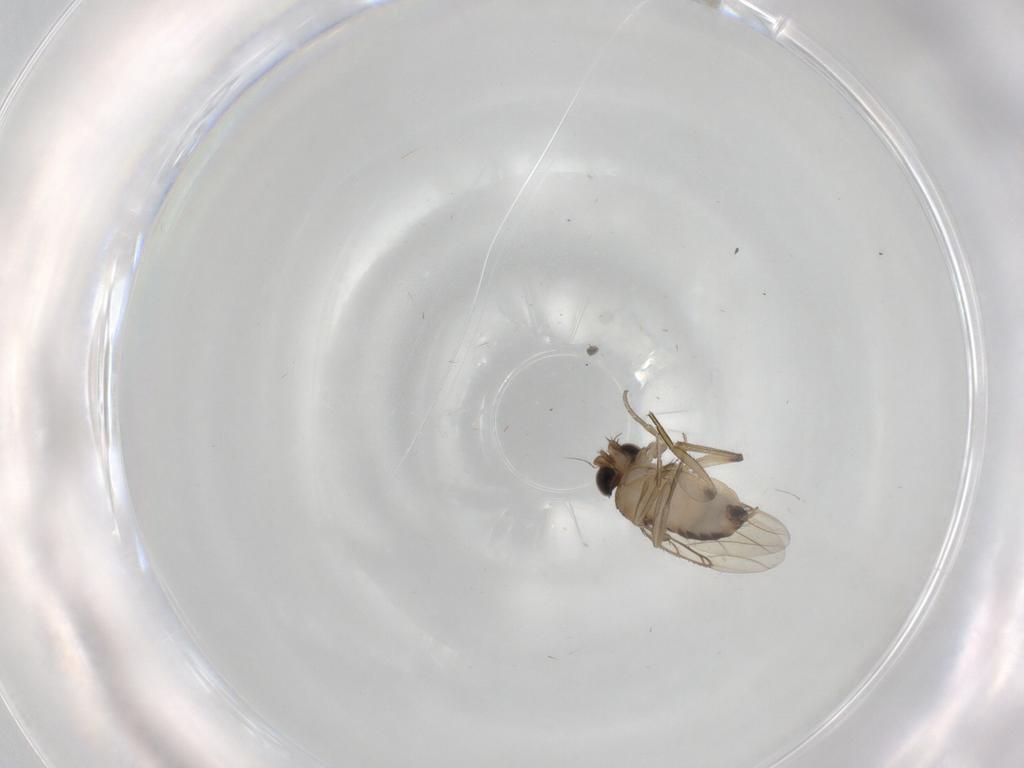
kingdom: Animalia
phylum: Arthropoda
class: Insecta
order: Diptera
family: Phoridae
